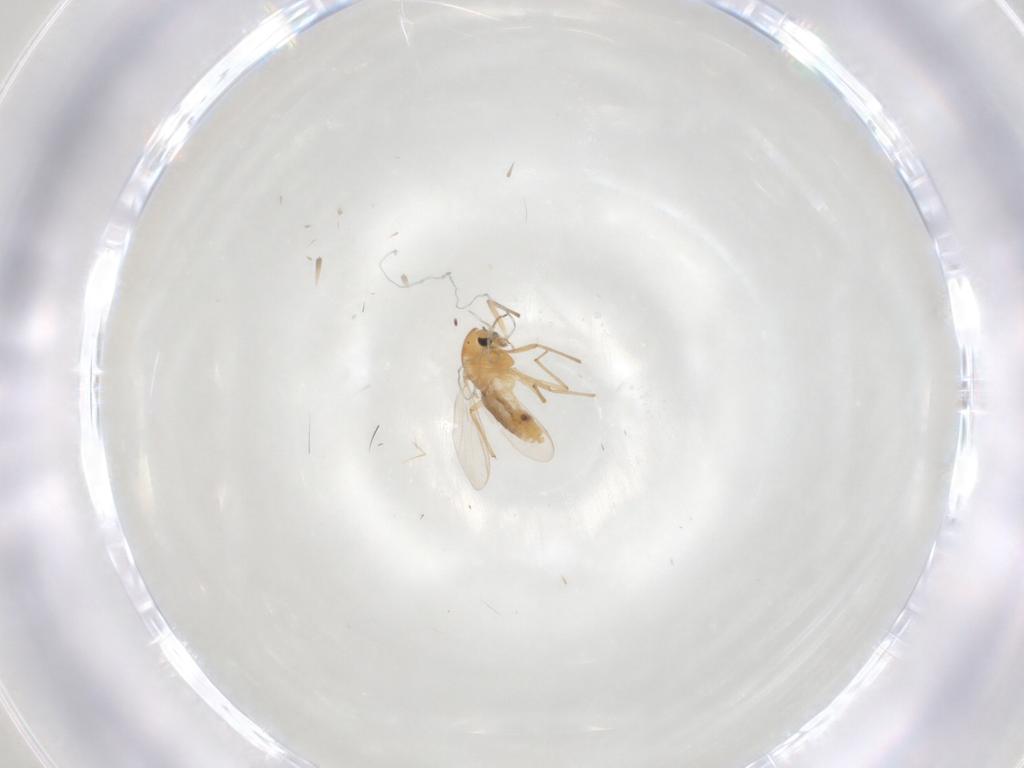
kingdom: Animalia
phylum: Arthropoda
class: Insecta
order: Diptera
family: Chironomidae
